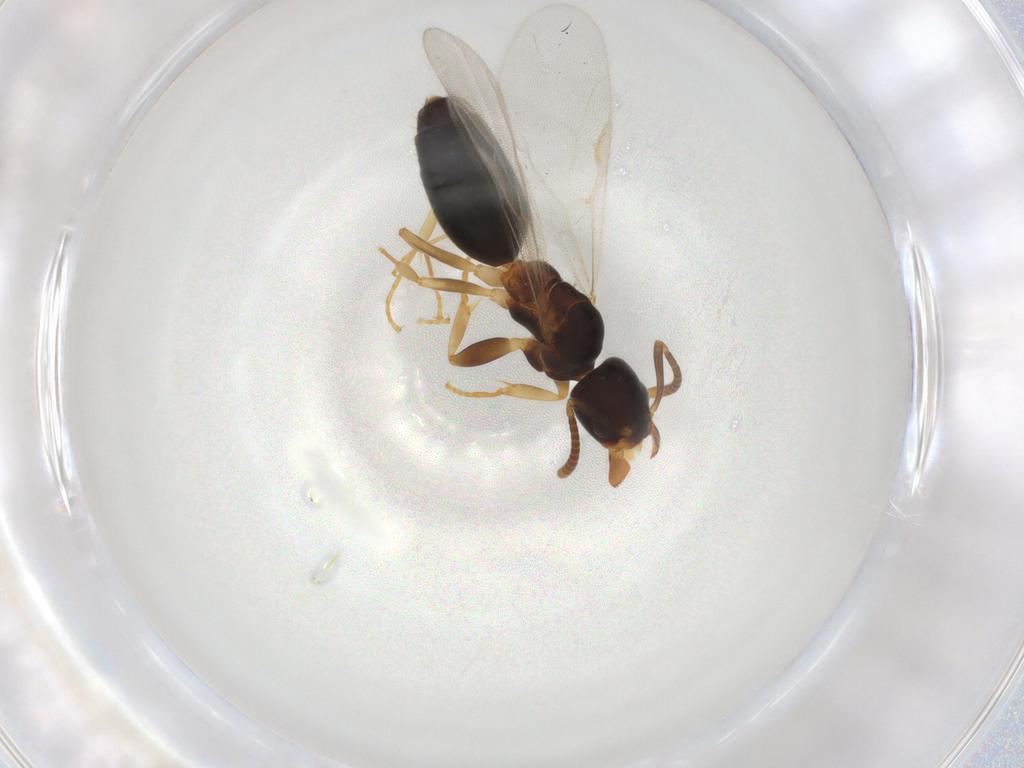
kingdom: Animalia
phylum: Arthropoda
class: Insecta
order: Hymenoptera
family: Formicidae
